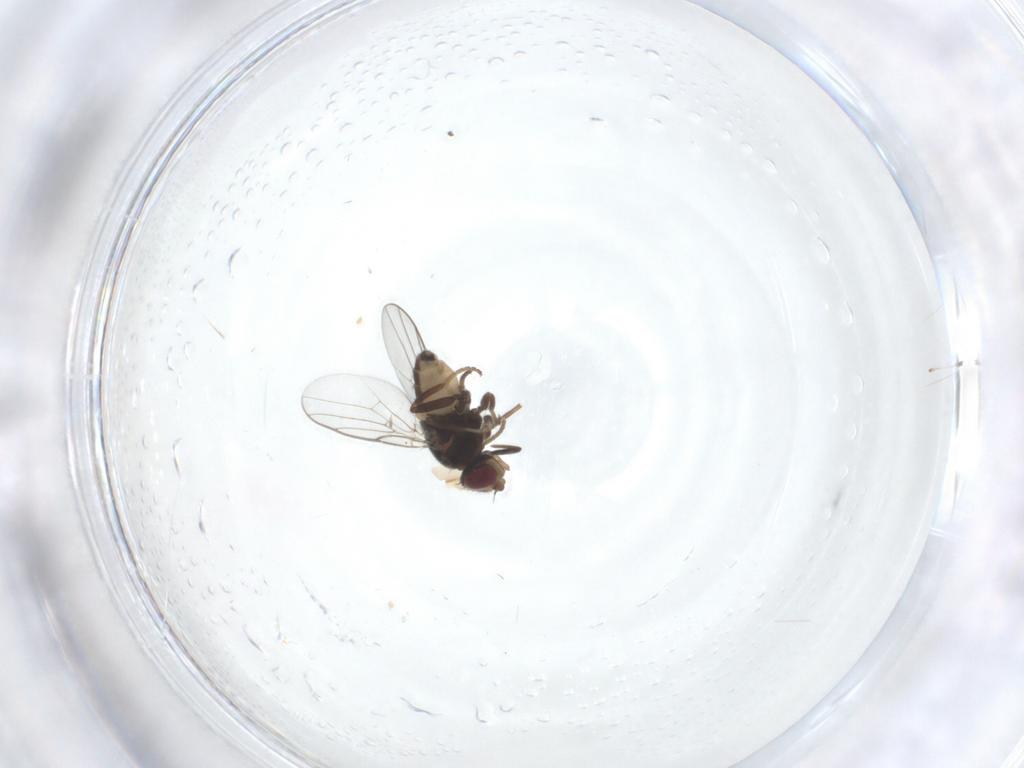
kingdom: Animalia
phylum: Arthropoda
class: Insecta
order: Diptera
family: Chloropidae
